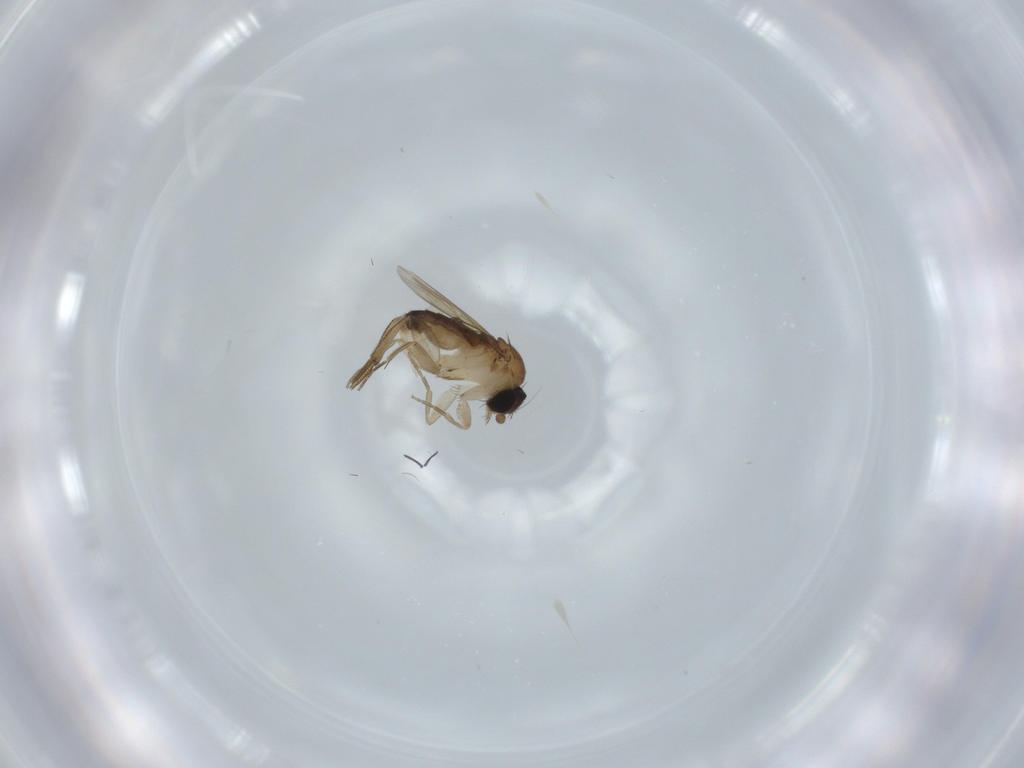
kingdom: Animalia
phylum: Arthropoda
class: Insecta
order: Diptera
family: Phoridae
